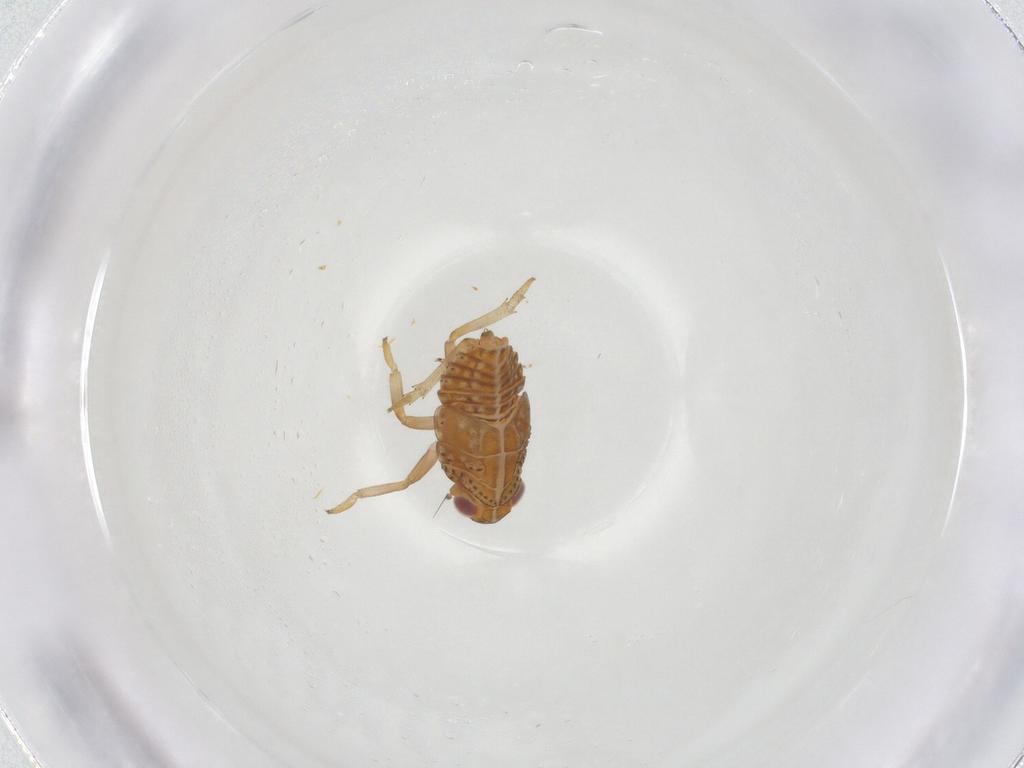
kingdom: Animalia
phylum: Arthropoda
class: Insecta
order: Hemiptera
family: Issidae
